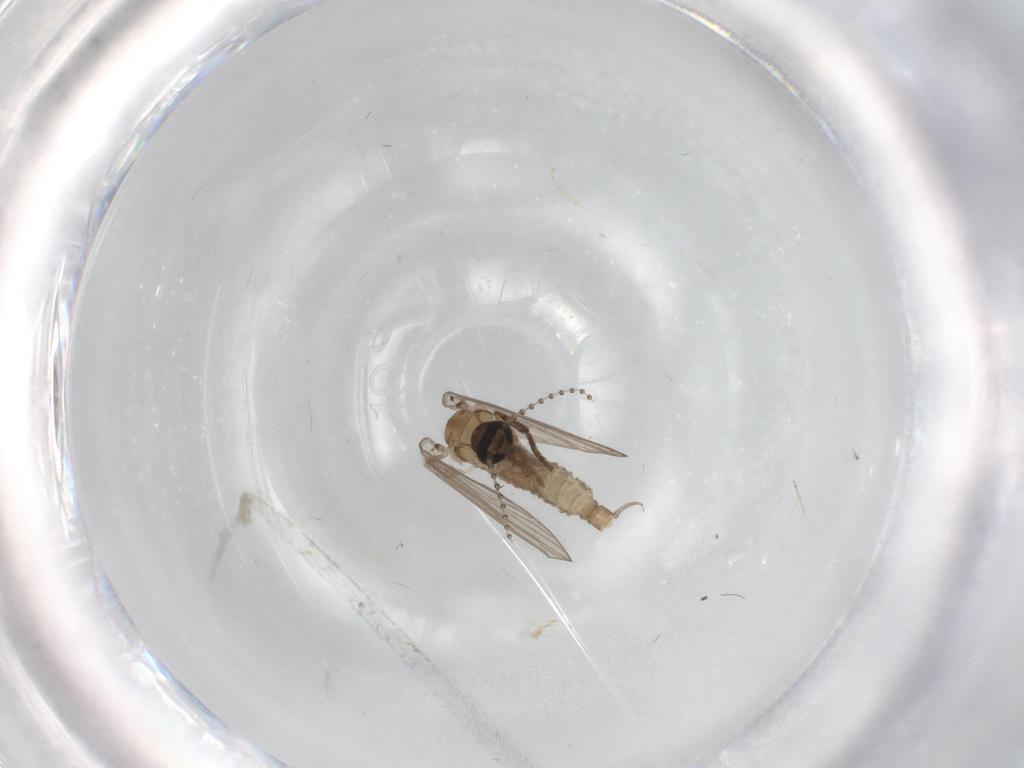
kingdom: Animalia
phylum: Arthropoda
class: Insecta
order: Diptera
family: Psychodidae
